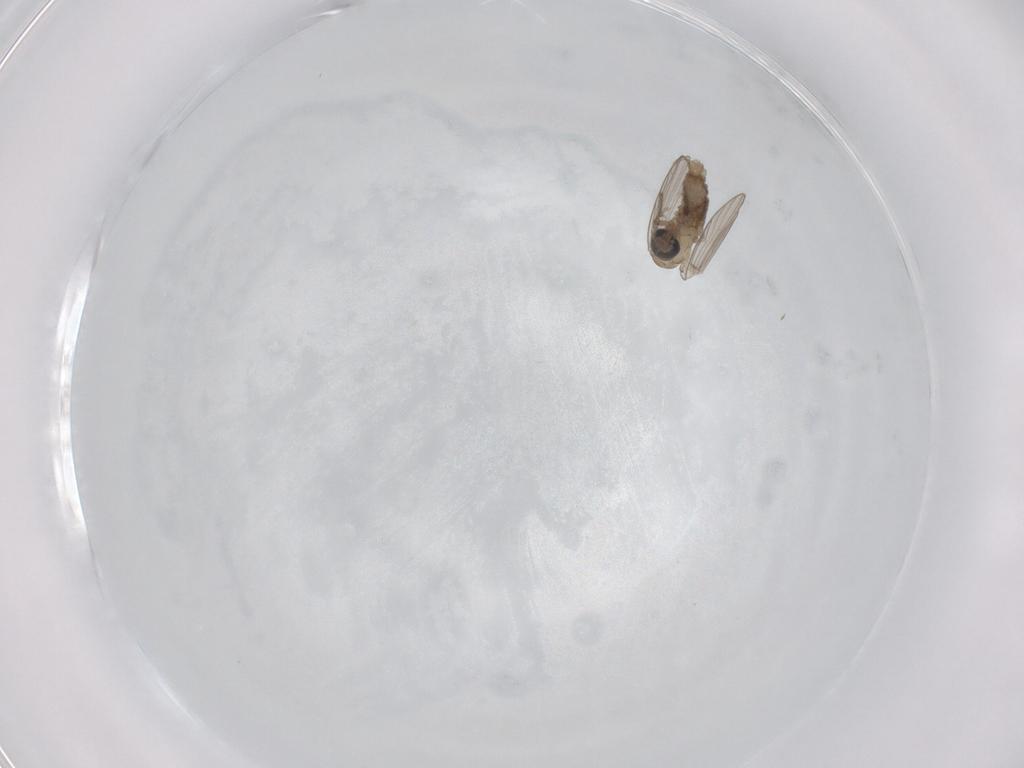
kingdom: Animalia
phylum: Arthropoda
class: Insecta
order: Diptera
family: Psychodidae
